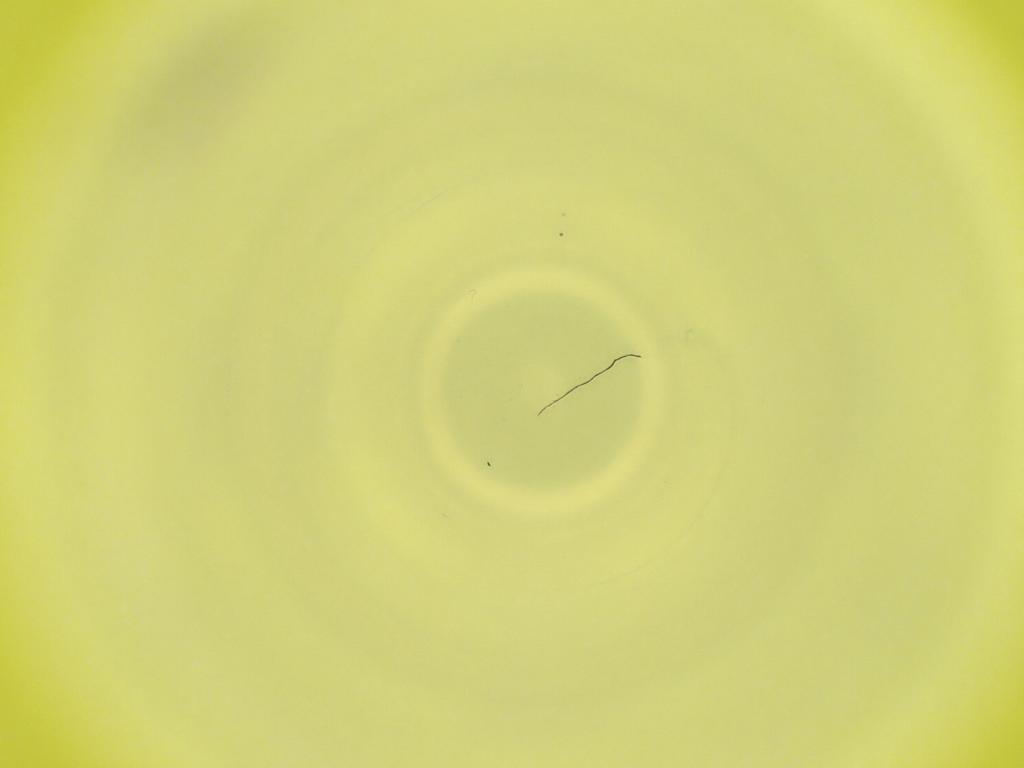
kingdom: Animalia
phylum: Arthropoda
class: Insecta
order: Diptera
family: Cecidomyiidae
